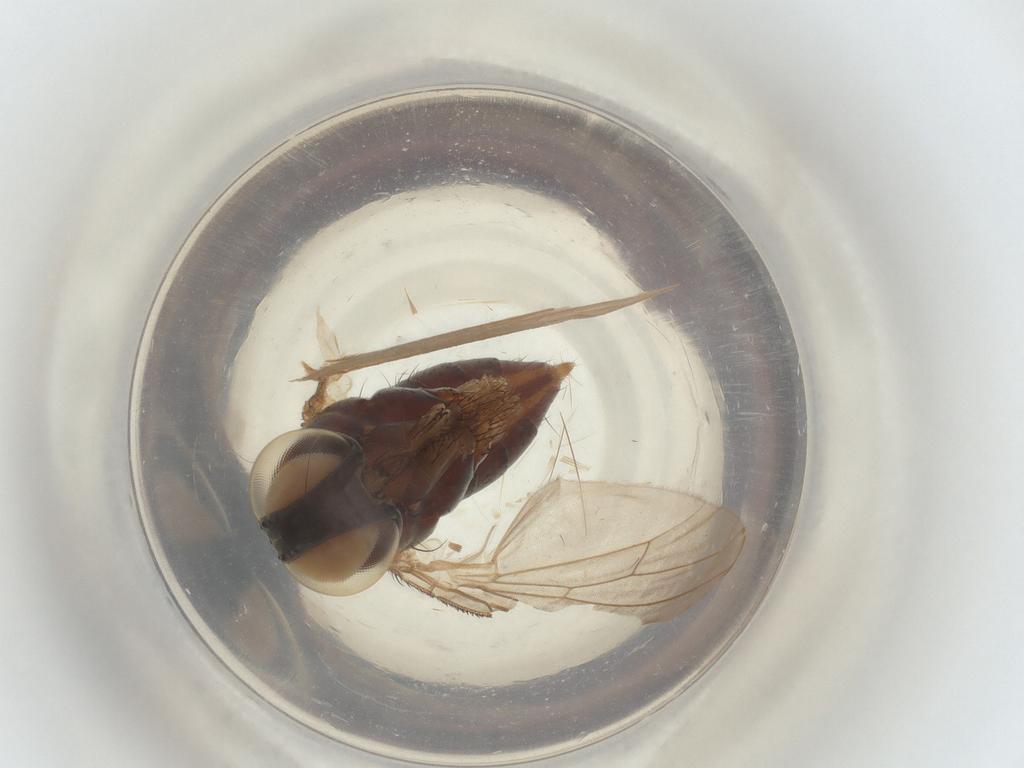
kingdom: Animalia
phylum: Arthropoda
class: Insecta
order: Diptera
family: Muscidae
